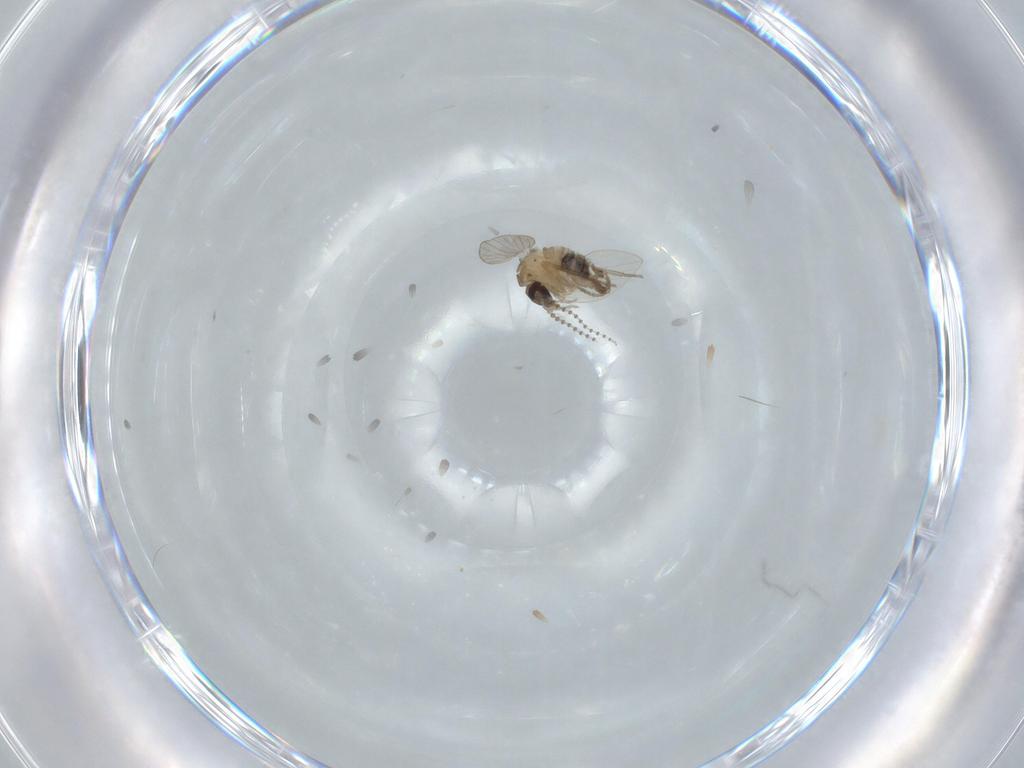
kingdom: Animalia
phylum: Arthropoda
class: Insecta
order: Diptera
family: Psychodidae
